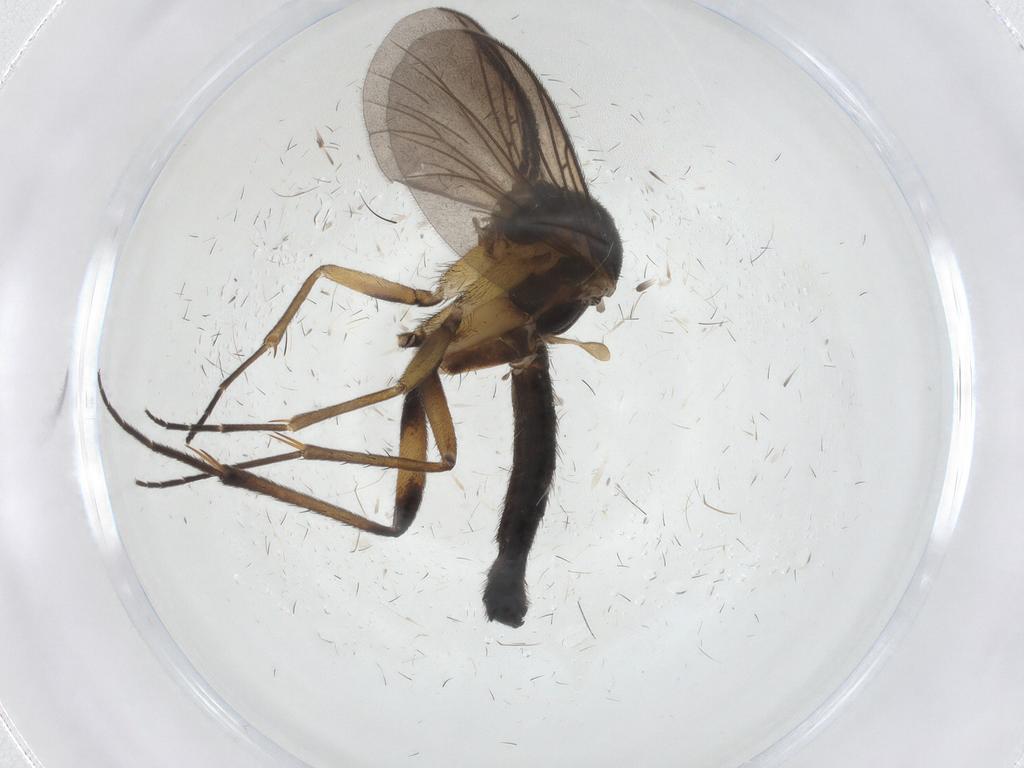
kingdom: Animalia
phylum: Arthropoda
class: Insecta
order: Diptera
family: Mycetophilidae
